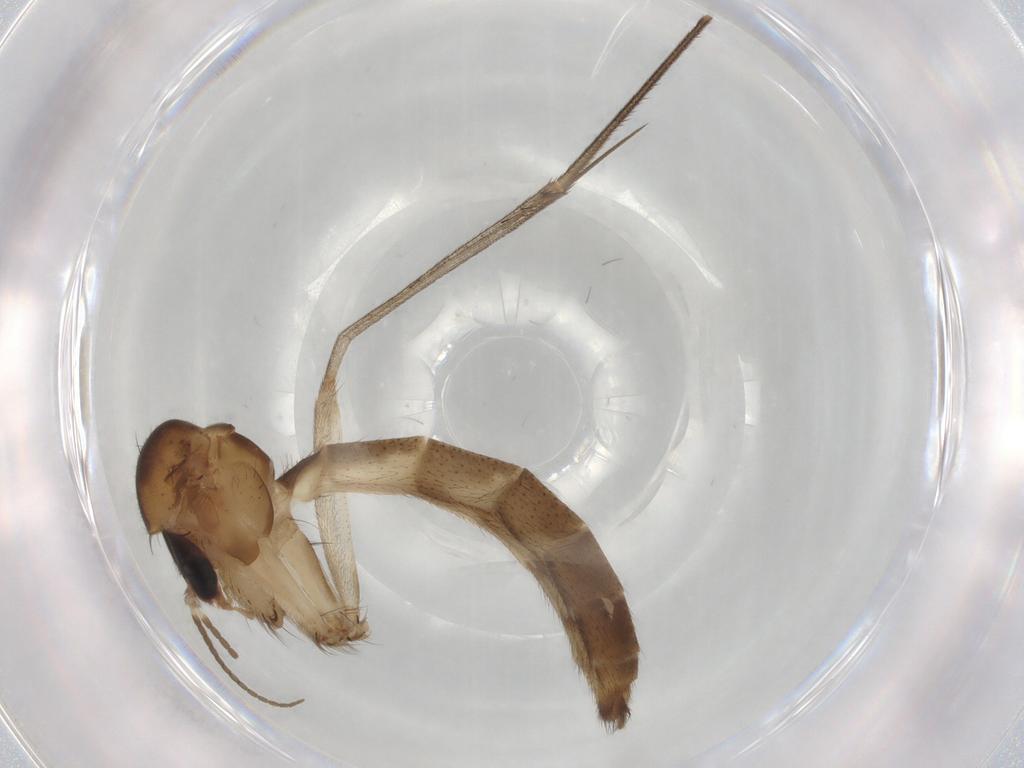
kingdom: Animalia
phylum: Arthropoda
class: Insecta
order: Diptera
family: Mycetophilidae
